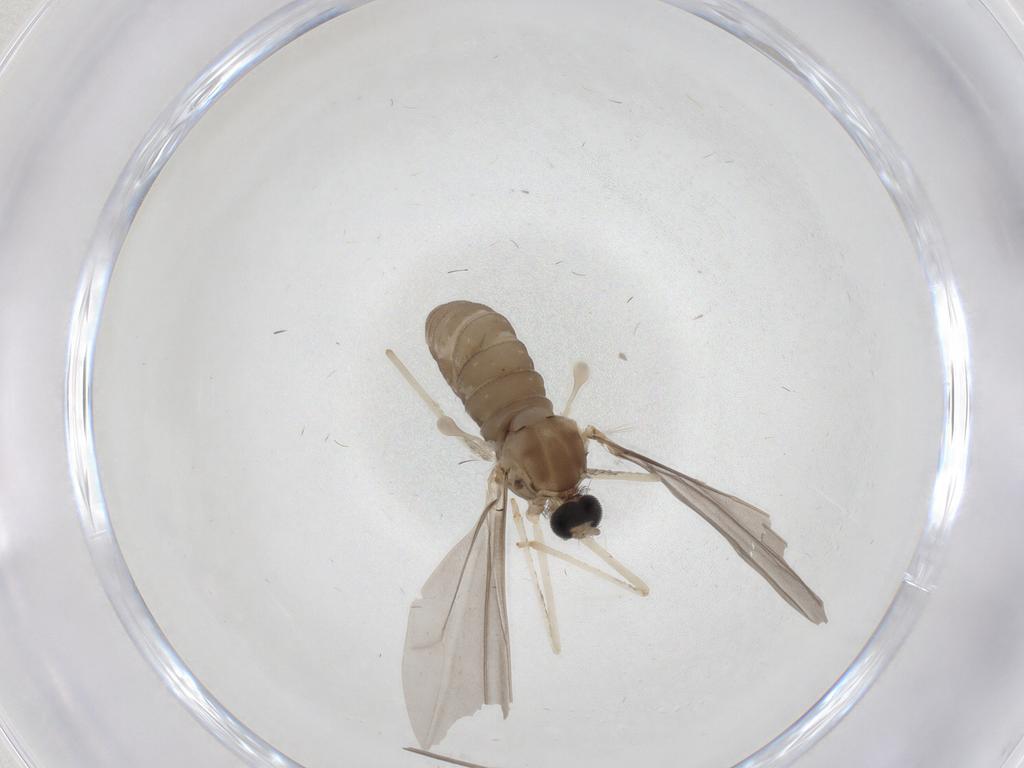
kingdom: Animalia
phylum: Arthropoda
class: Insecta
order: Diptera
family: Cecidomyiidae
